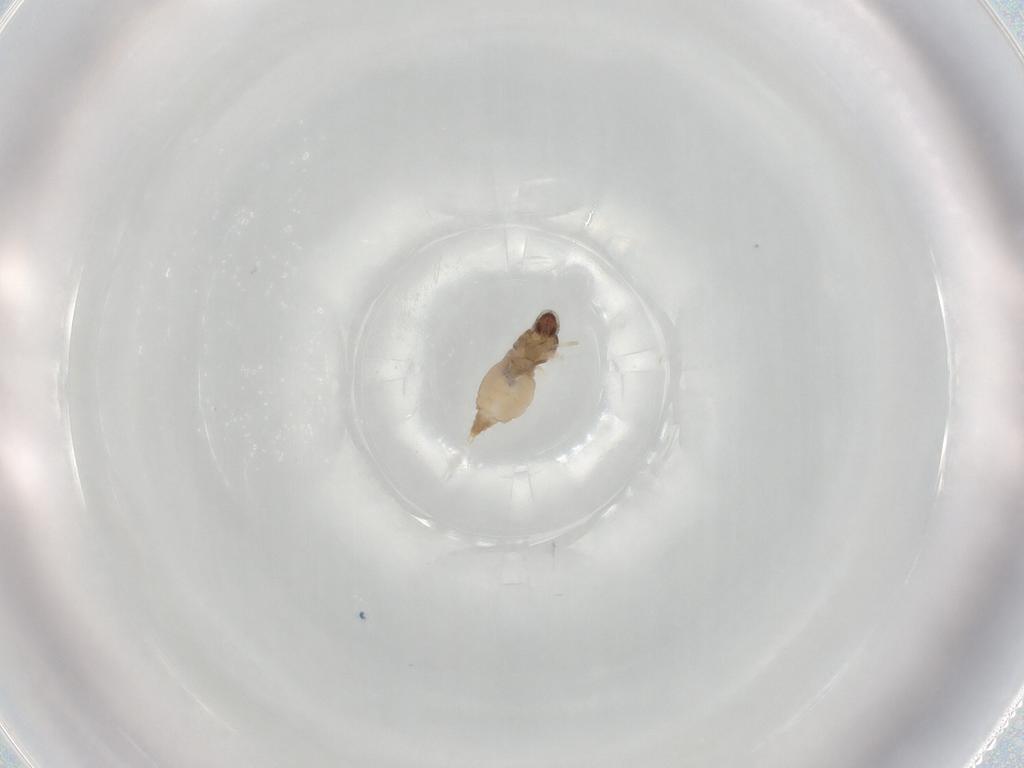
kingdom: Animalia
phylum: Arthropoda
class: Insecta
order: Diptera
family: Cecidomyiidae
